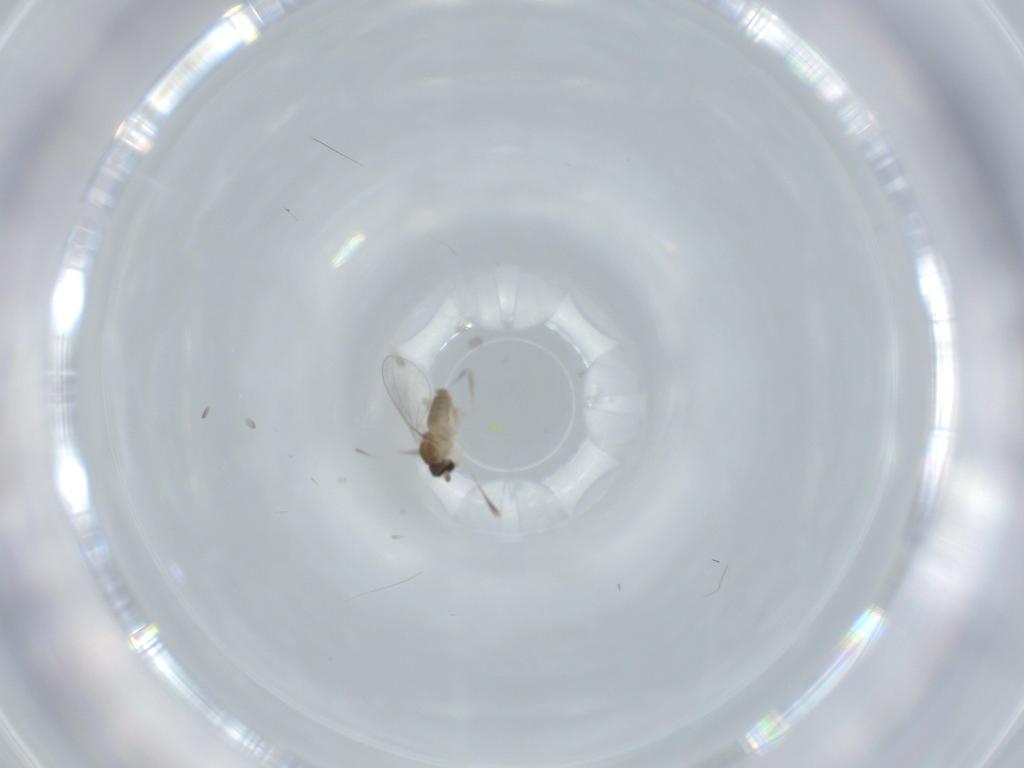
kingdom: Animalia
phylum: Arthropoda
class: Insecta
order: Diptera
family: Cecidomyiidae
